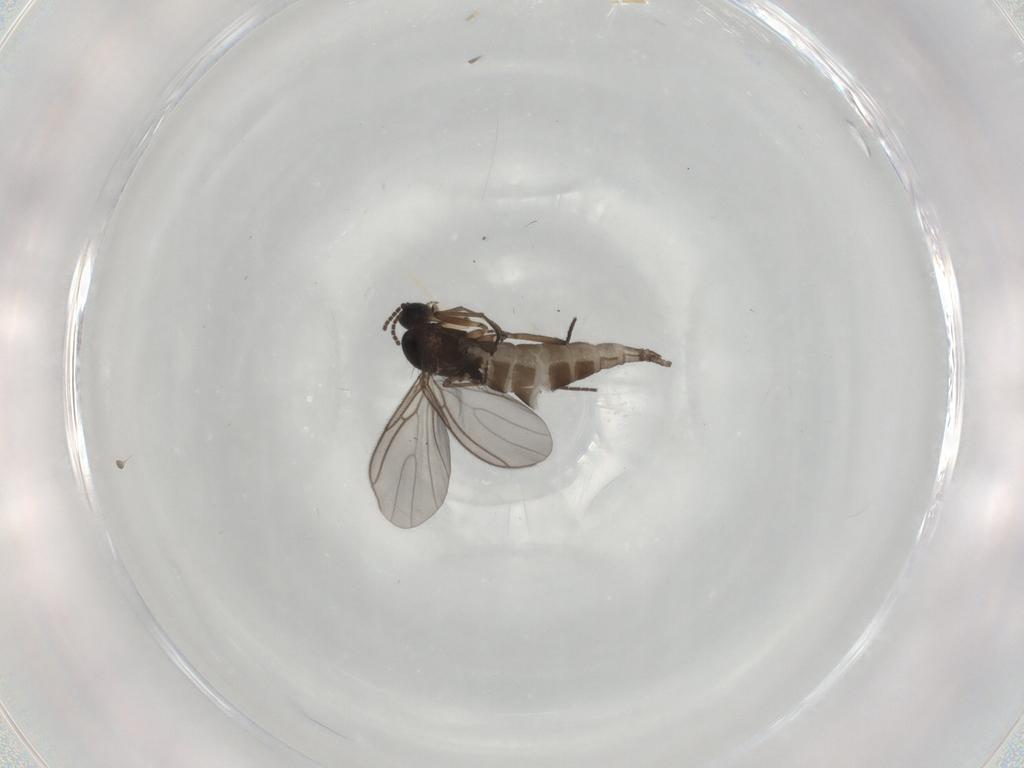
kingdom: Animalia
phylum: Arthropoda
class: Insecta
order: Diptera
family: Sciaridae
